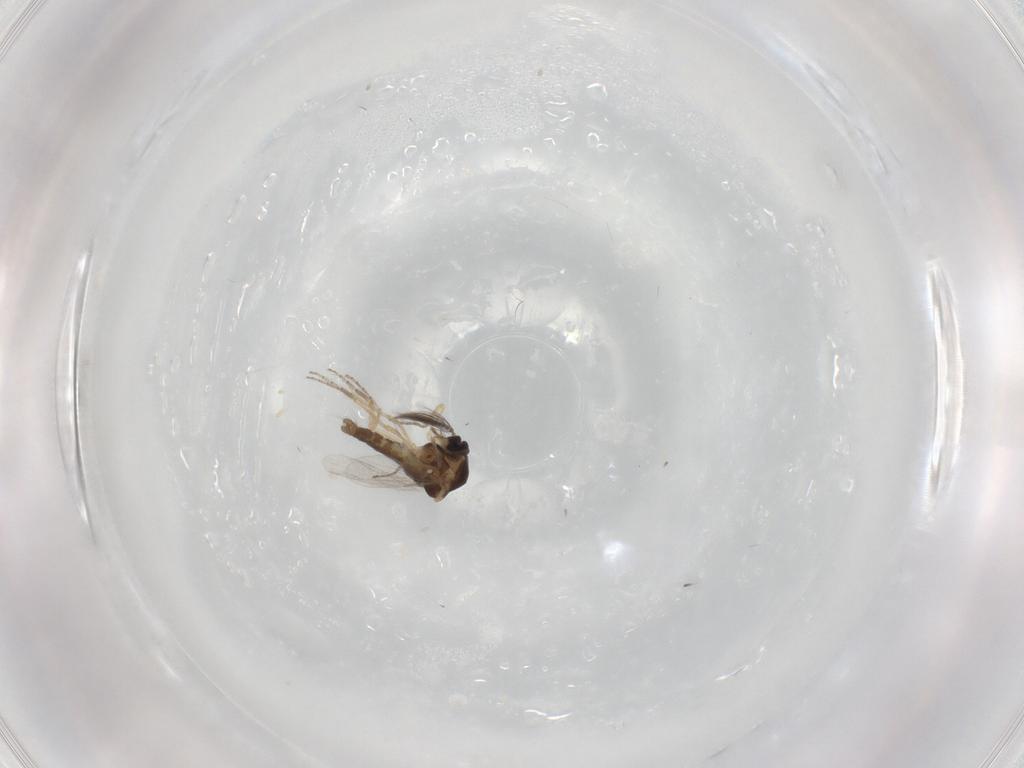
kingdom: Animalia
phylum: Arthropoda
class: Insecta
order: Diptera
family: Ceratopogonidae
